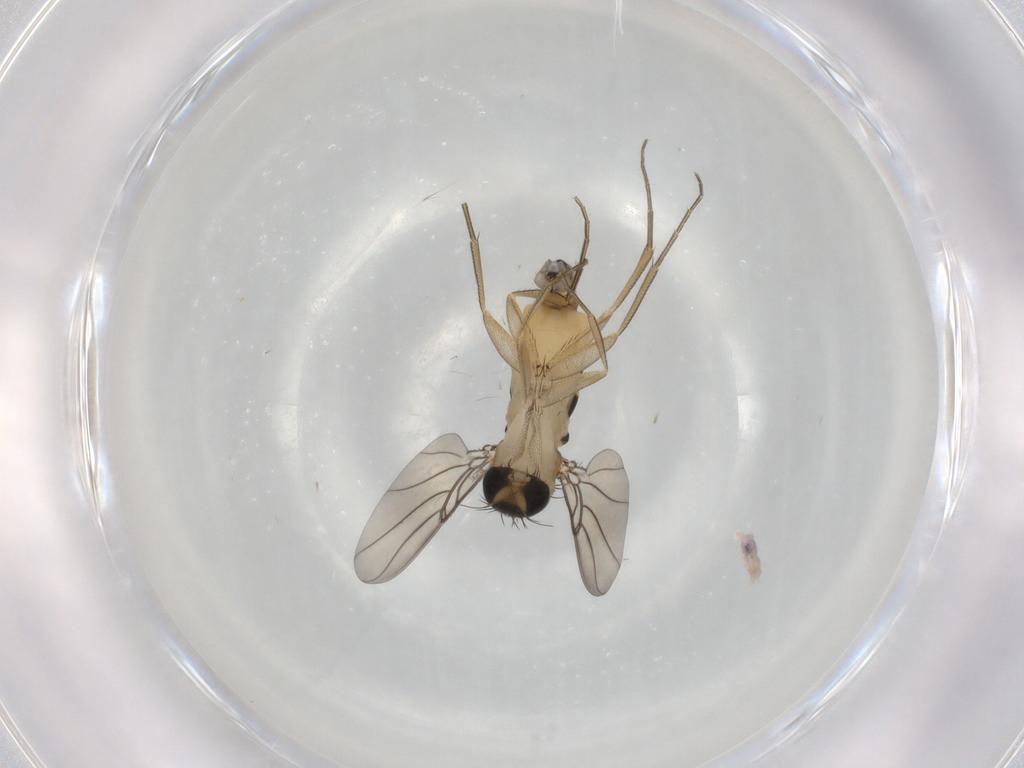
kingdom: Animalia
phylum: Arthropoda
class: Insecta
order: Diptera
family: Phoridae
